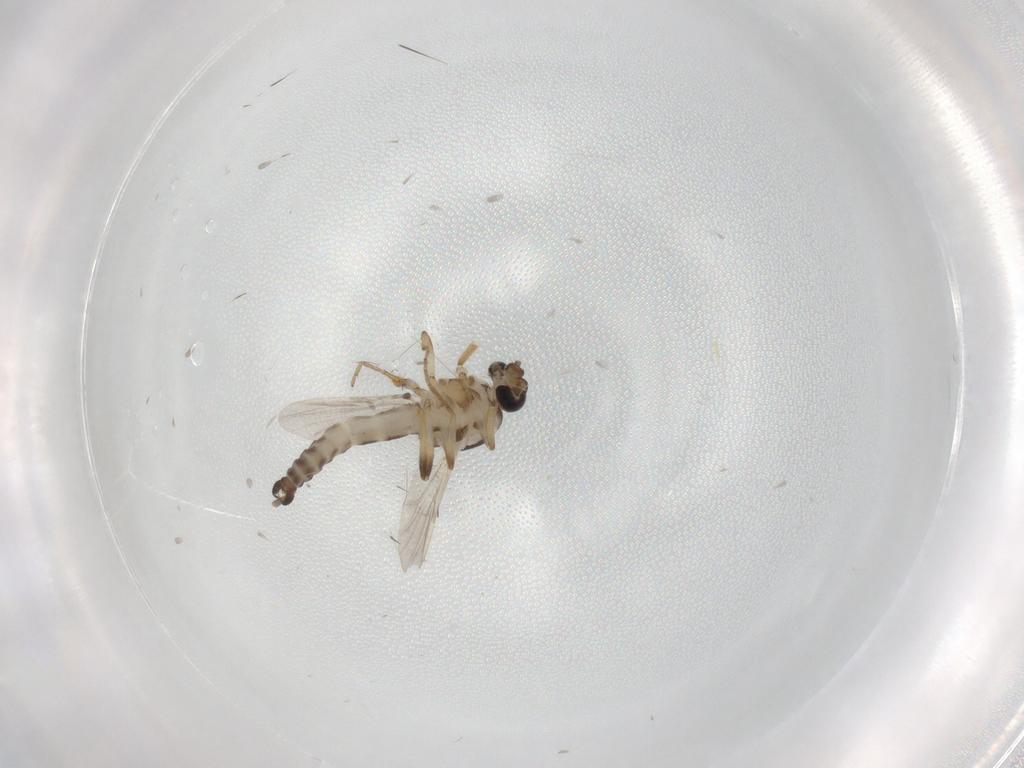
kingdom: Animalia
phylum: Arthropoda
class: Insecta
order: Diptera
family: Ceratopogonidae
